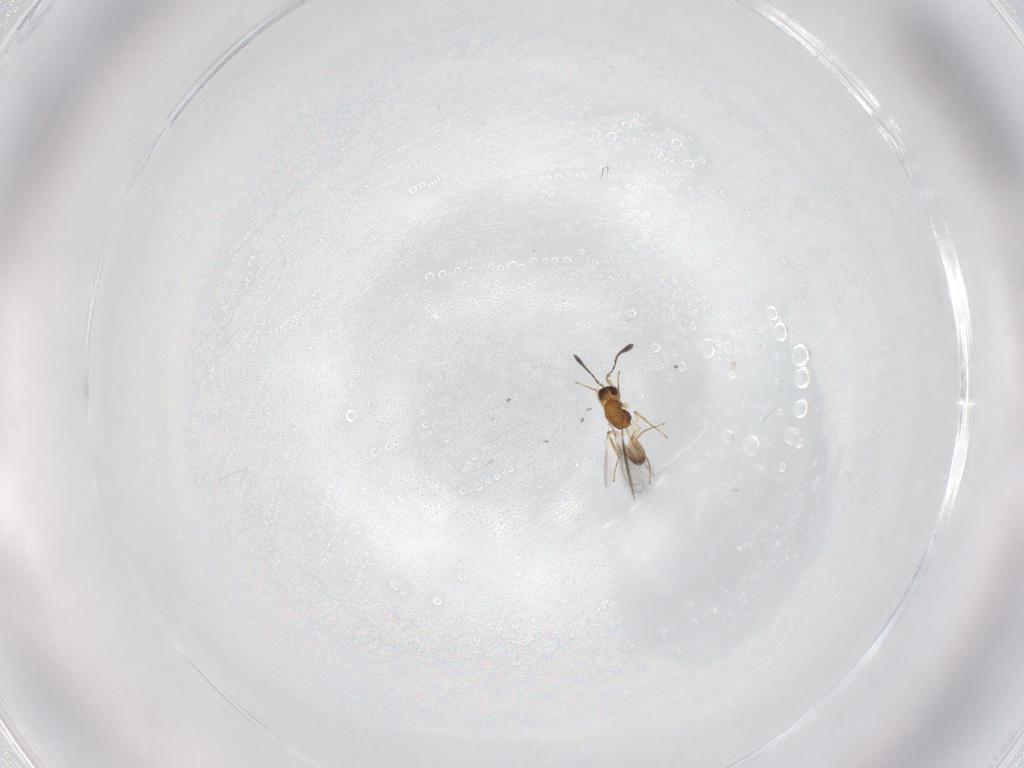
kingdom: Animalia
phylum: Arthropoda
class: Insecta
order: Hymenoptera
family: Mymaridae
